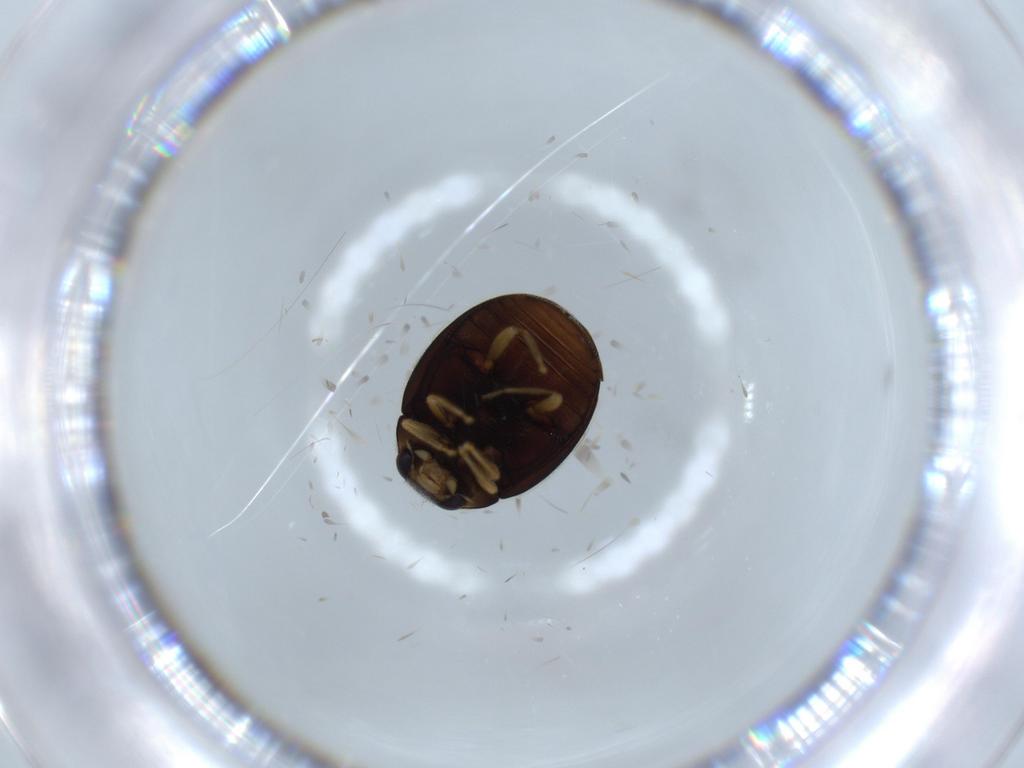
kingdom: Animalia
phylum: Arthropoda
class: Insecta
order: Coleoptera
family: Coccinellidae
